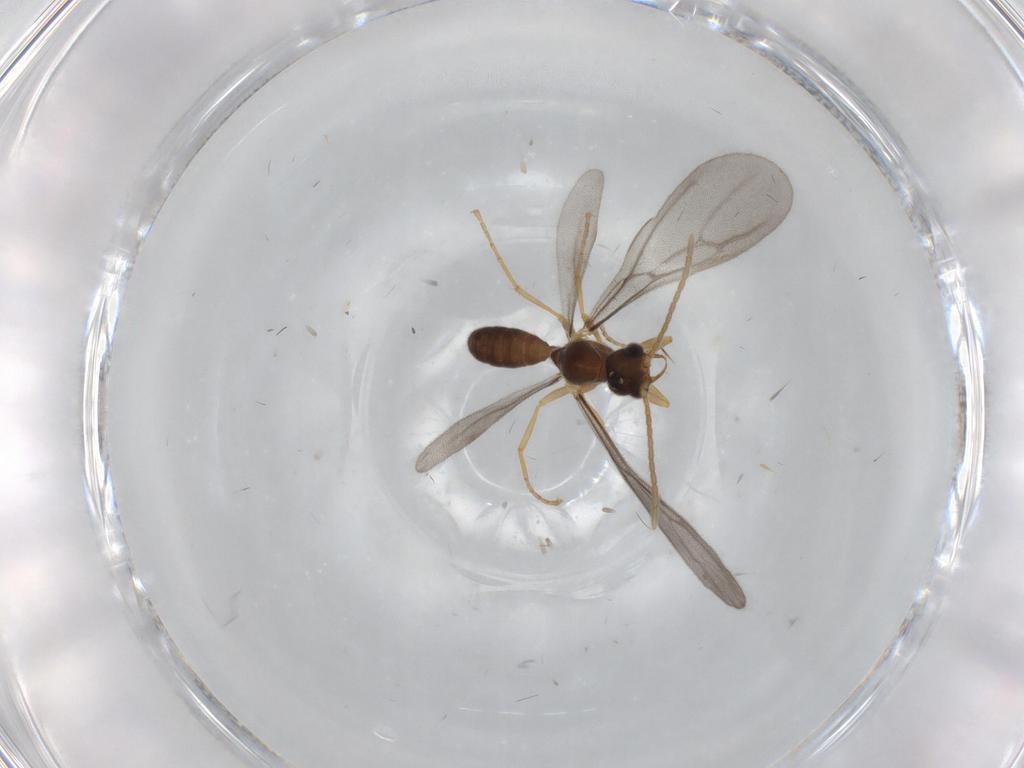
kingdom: Animalia
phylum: Arthropoda
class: Insecta
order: Hymenoptera
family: Formicidae
